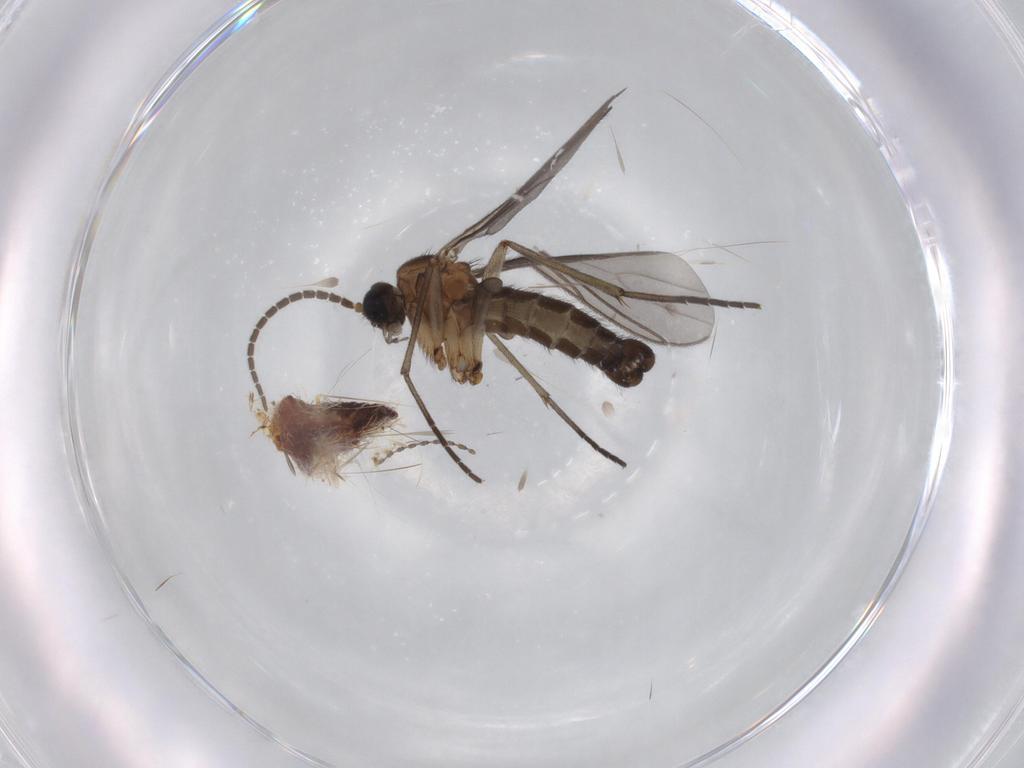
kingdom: Animalia
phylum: Arthropoda
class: Insecta
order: Diptera
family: Sciaridae
